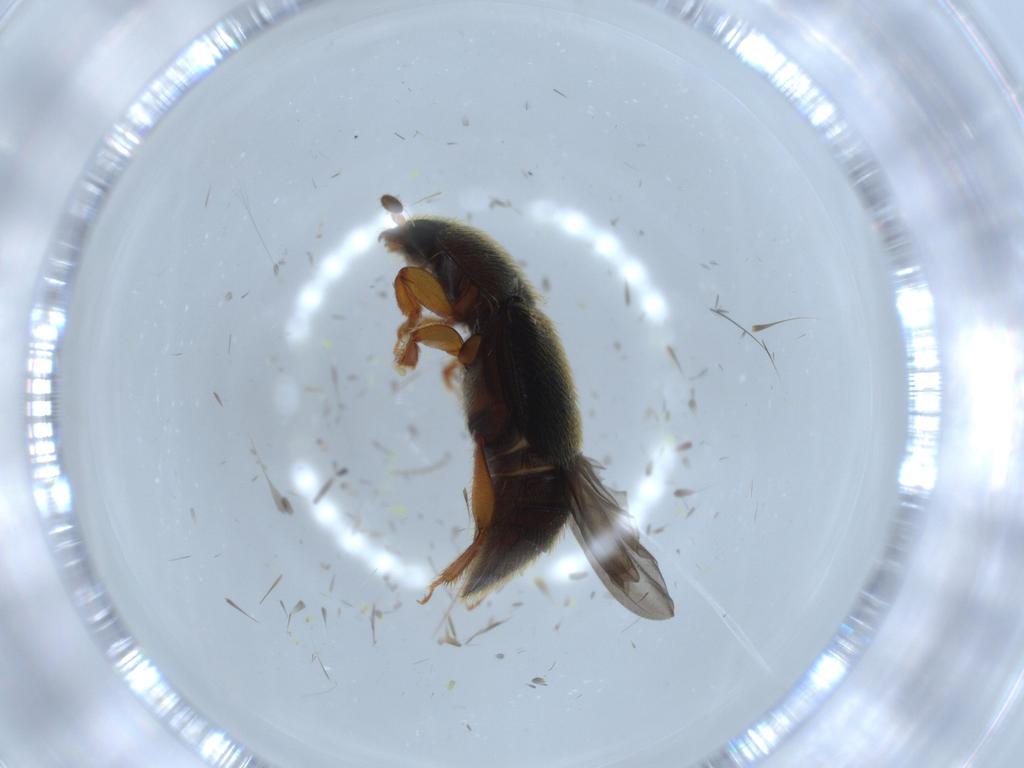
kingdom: Animalia
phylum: Arthropoda
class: Insecta
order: Coleoptera
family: Nitidulidae
